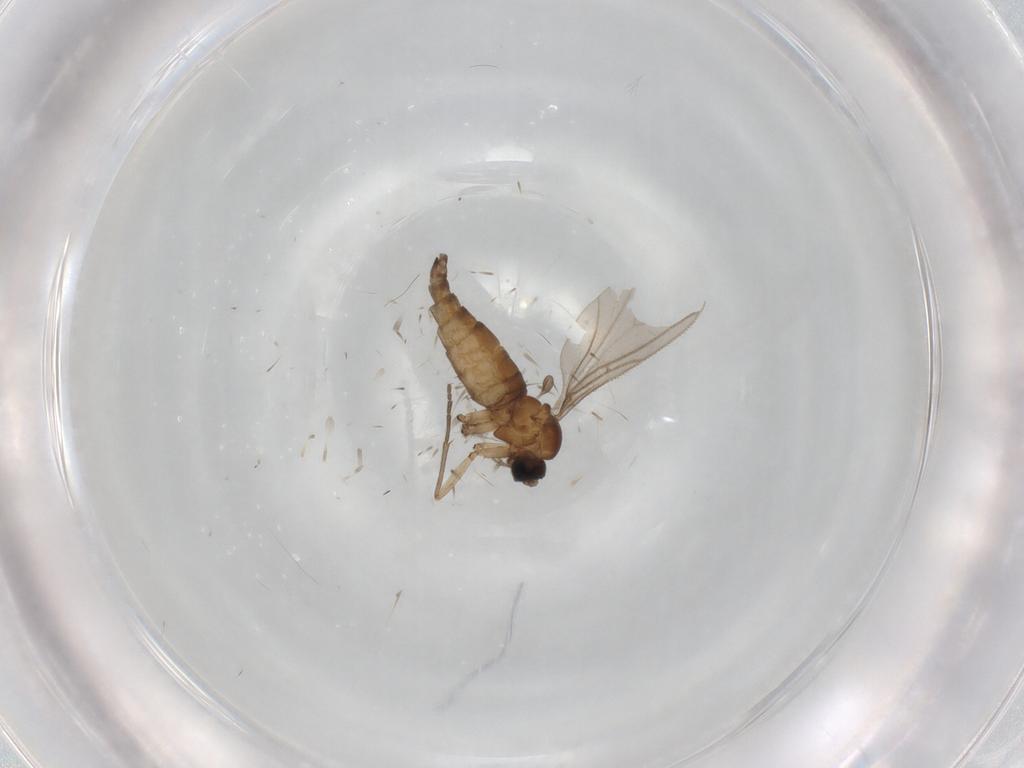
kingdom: Animalia
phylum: Arthropoda
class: Insecta
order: Diptera
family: Sciaridae
